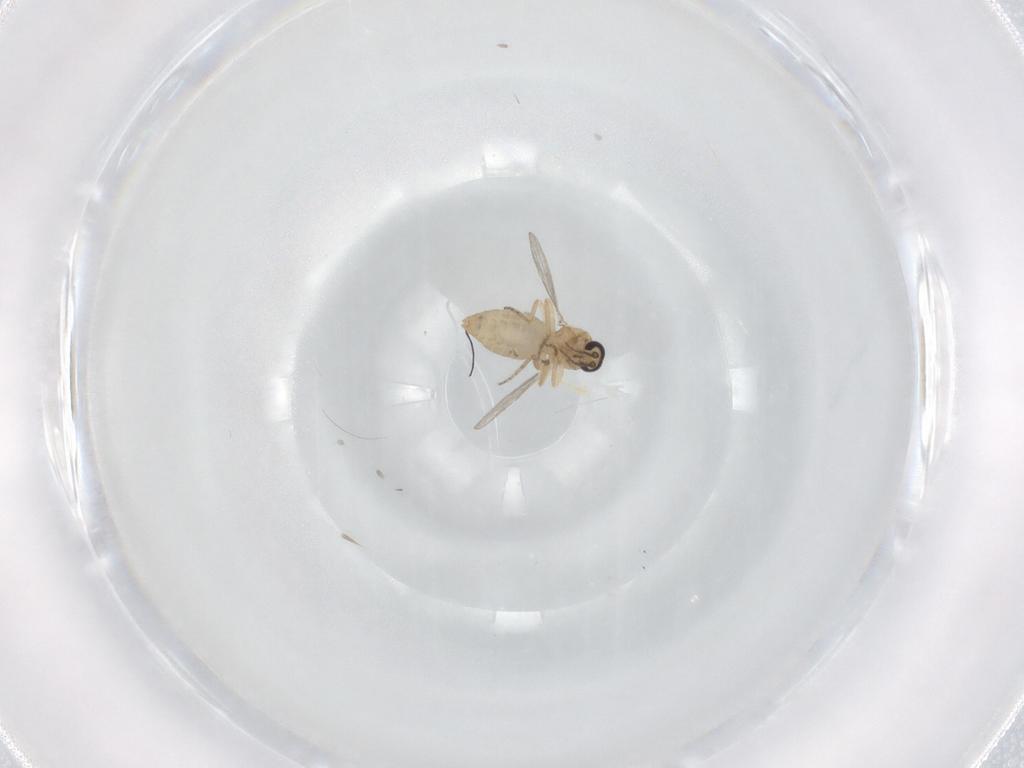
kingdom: Animalia
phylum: Arthropoda
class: Insecta
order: Diptera
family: Ceratopogonidae
